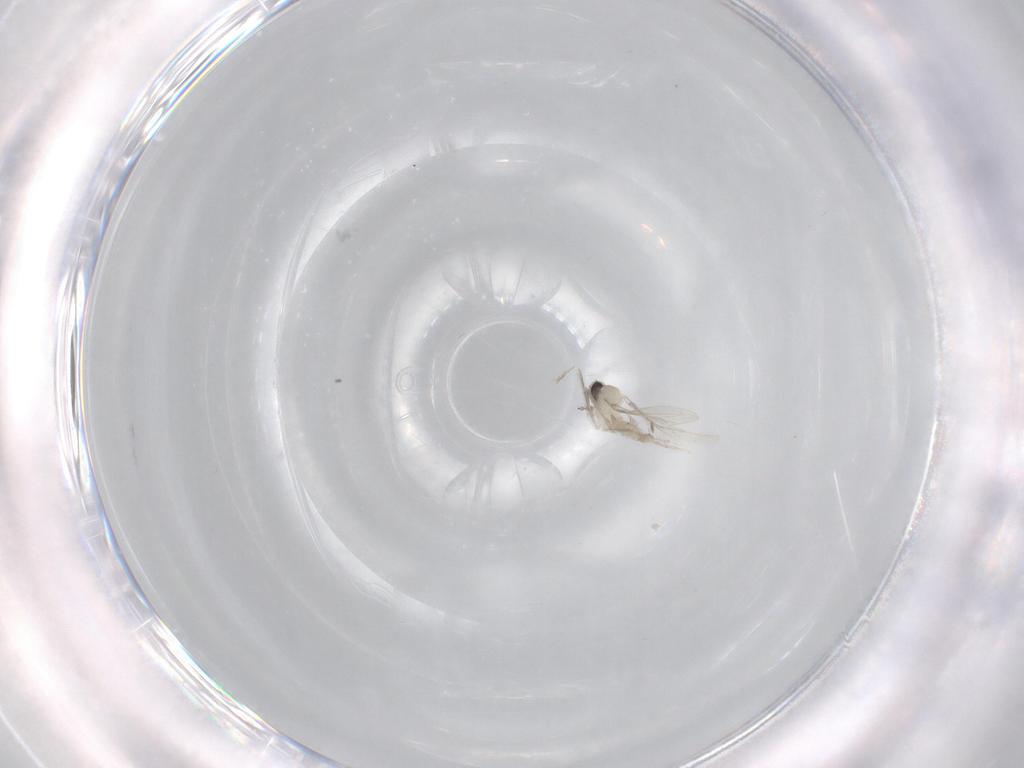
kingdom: Animalia
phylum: Arthropoda
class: Insecta
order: Diptera
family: Cecidomyiidae
